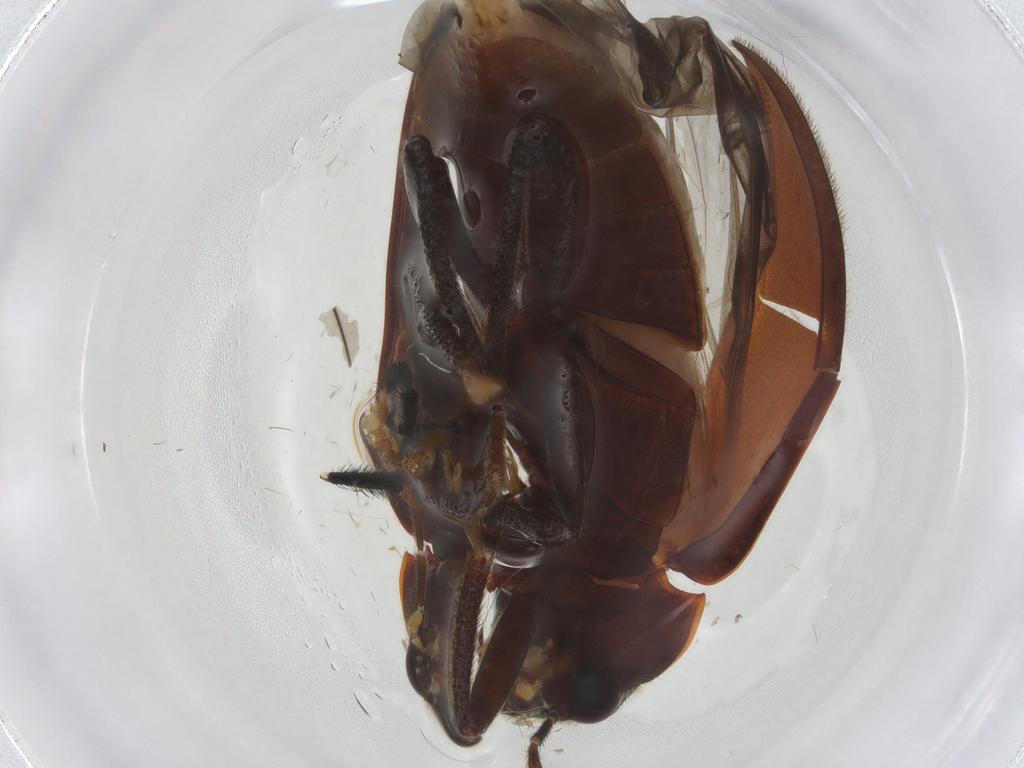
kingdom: Animalia
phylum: Arthropoda
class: Insecta
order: Coleoptera
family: Ptilodactylidae
